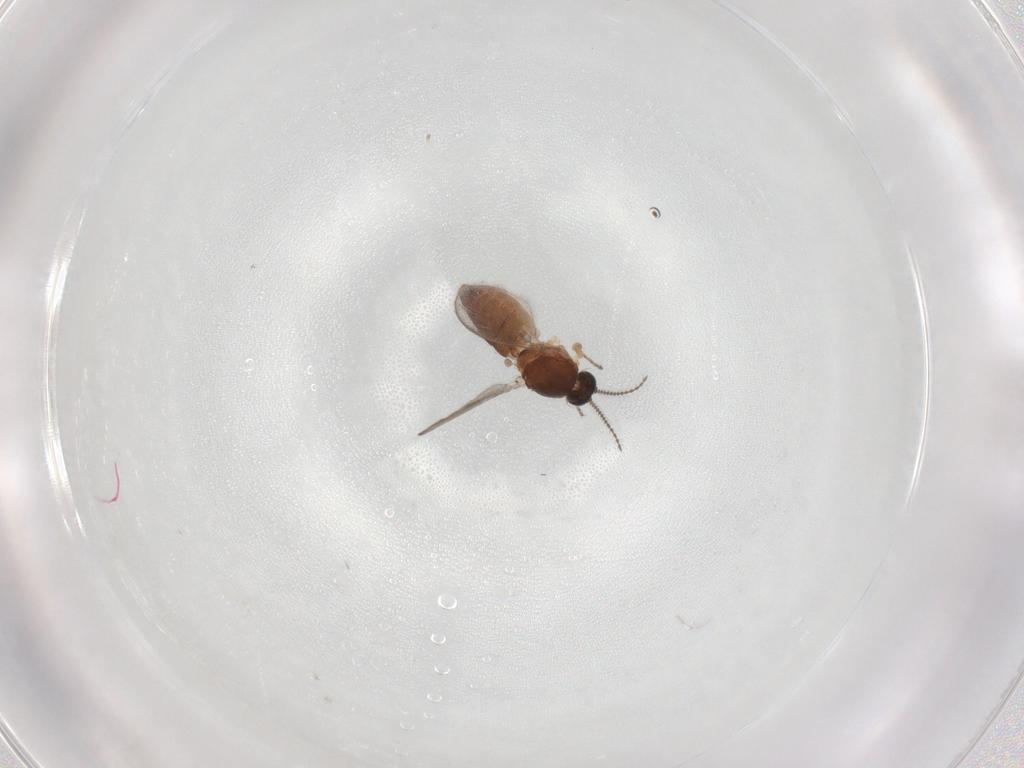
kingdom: Animalia
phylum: Arthropoda
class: Insecta
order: Diptera
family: Ceratopogonidae
